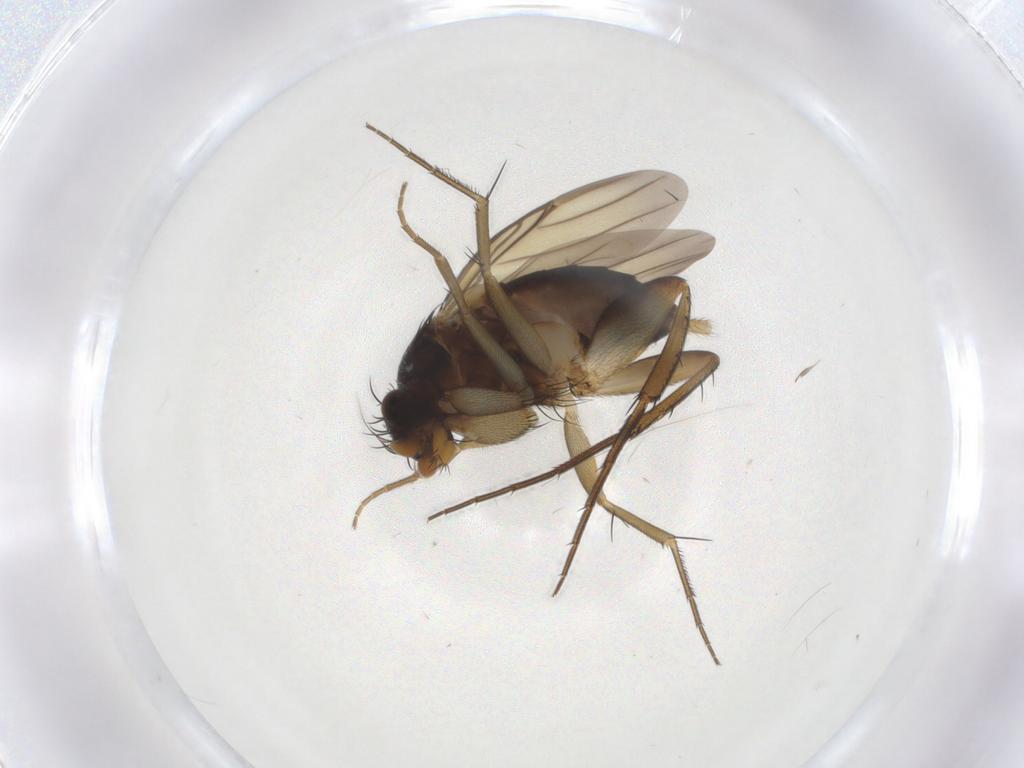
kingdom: Animalia
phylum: Arthropoda
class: Insecta
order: Diptera
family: Phoridae
